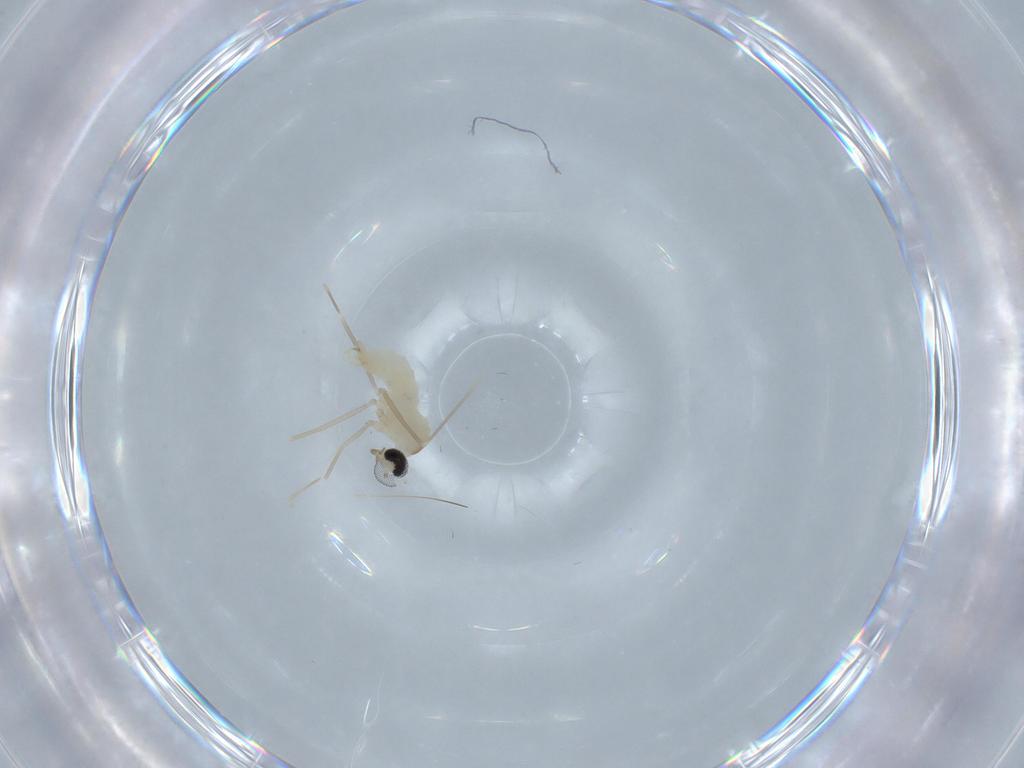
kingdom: Animalia
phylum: Arthropoda
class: Insecta
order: Diptera
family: Cecidomyiidae
